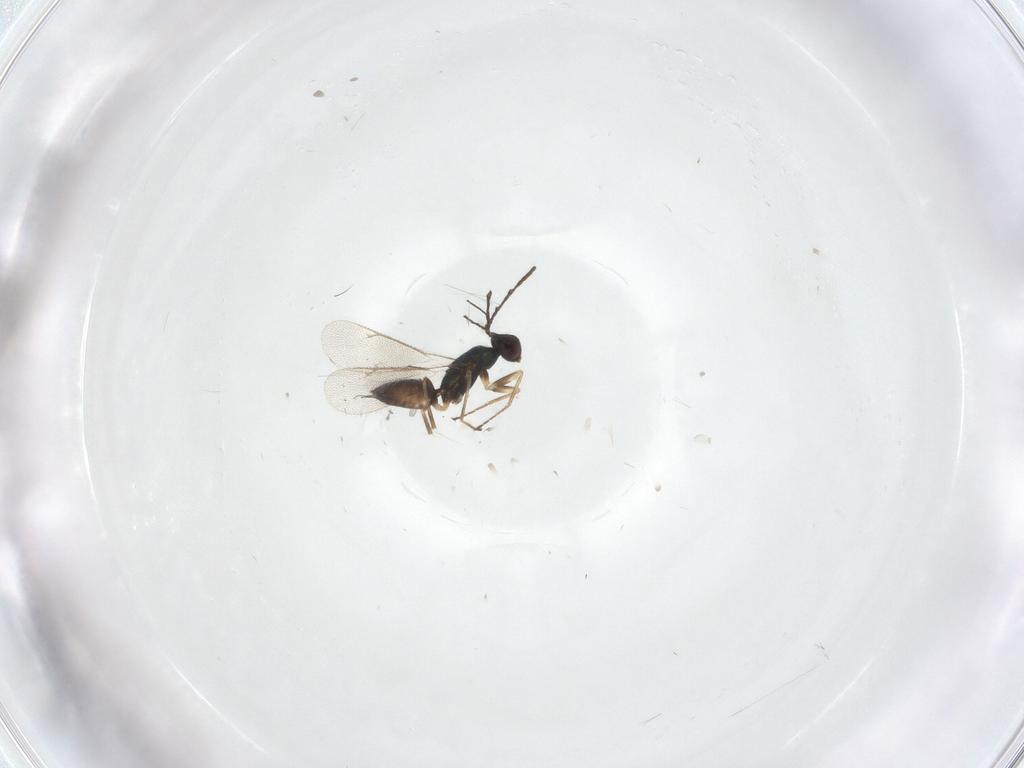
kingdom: Animalia
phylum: Arthropoda
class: Insecta
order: Hymenoptera
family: Eulophidae
